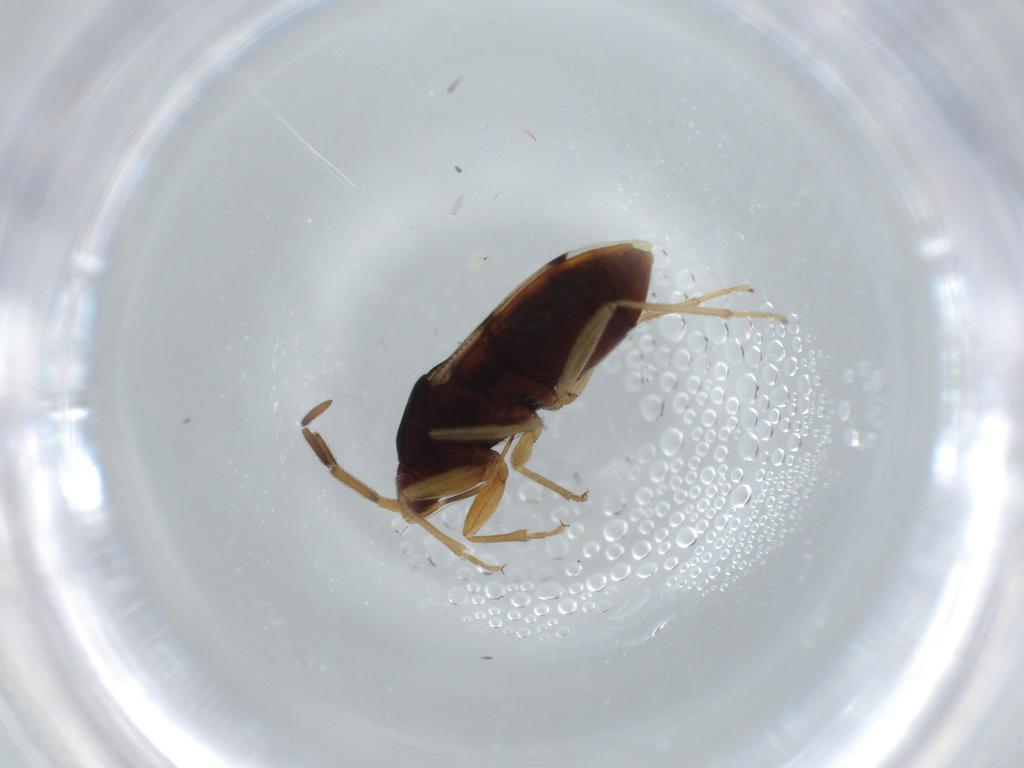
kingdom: Animalia
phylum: Arthropoda
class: Insecta
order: Hemiptera
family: Rhyparochromidae
